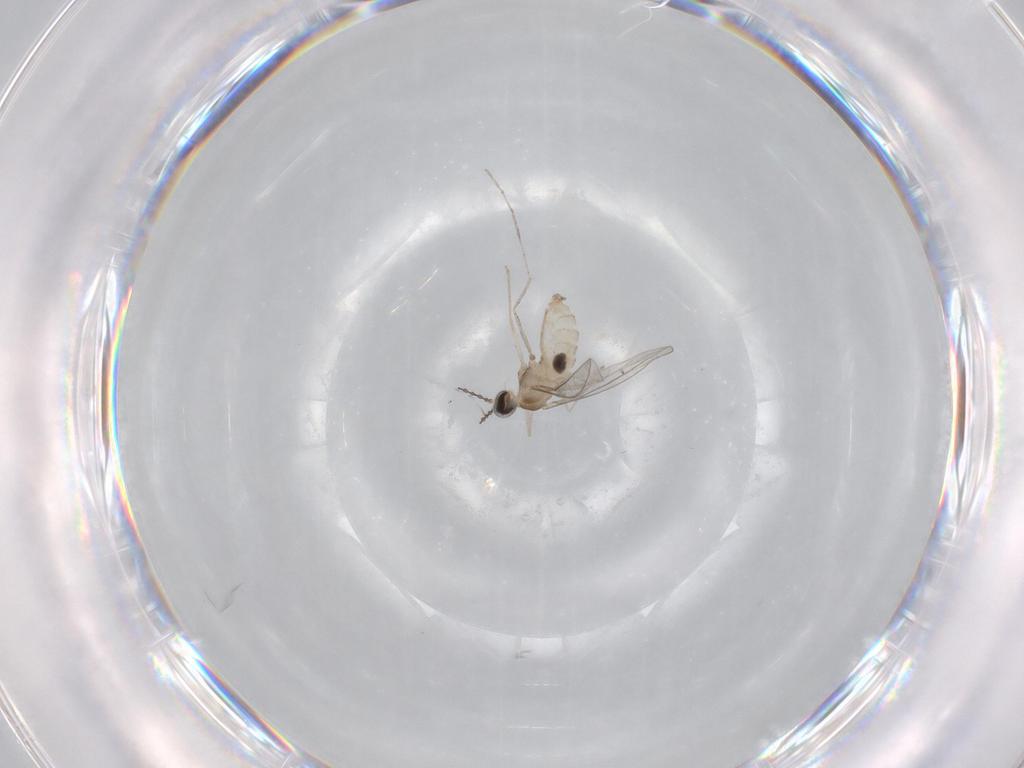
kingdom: Animalia
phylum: Arthropoda
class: Insecta
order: Diptera
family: Cecidomyiidae
